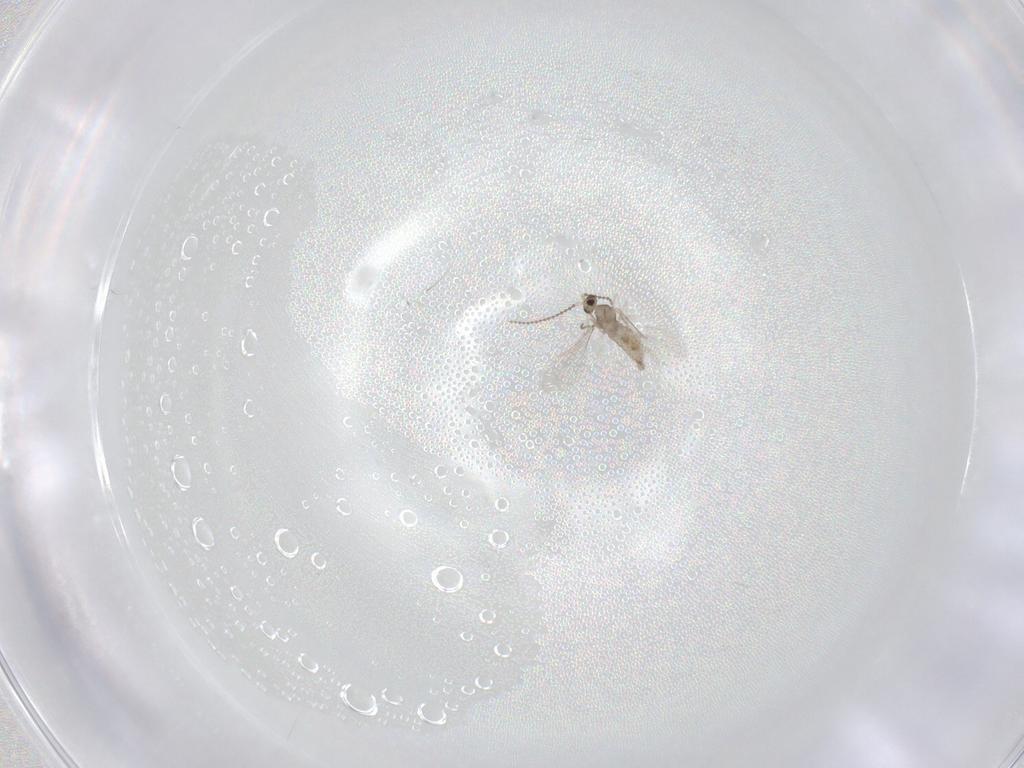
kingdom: Animalia
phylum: Arthropoda
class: Insecta
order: Diptera
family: Cecidomyiidae
